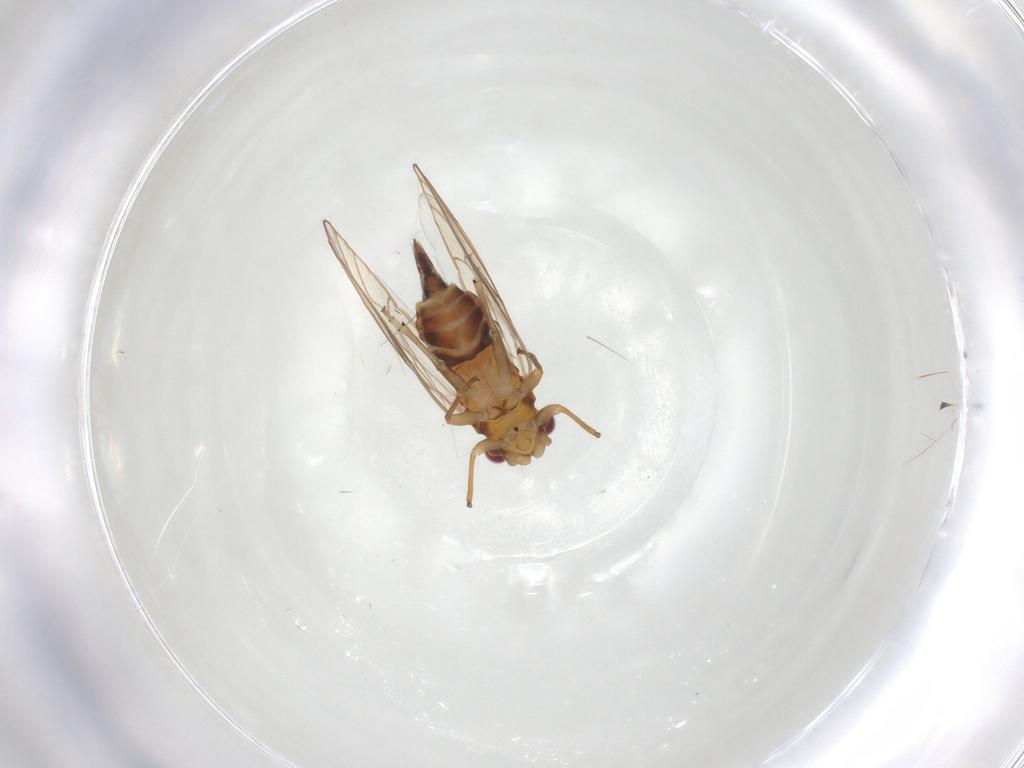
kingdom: Animalia
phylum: Arthropoda
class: Insecta
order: Hemiptera
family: Psyllidae
